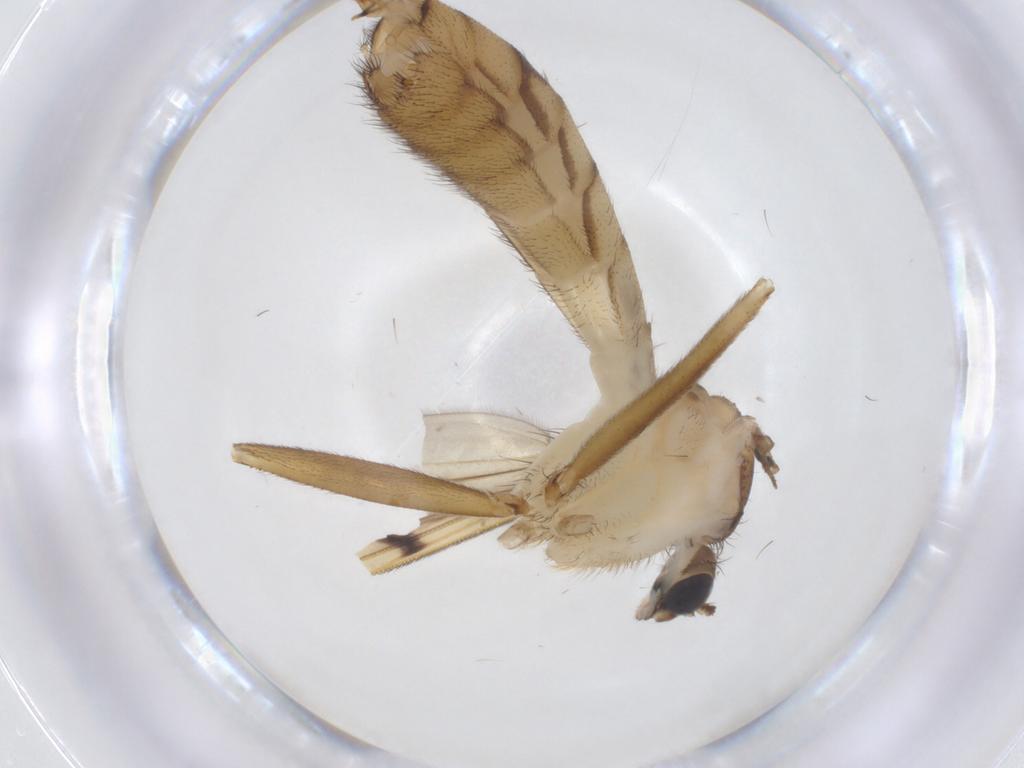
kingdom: Animalia
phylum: Arthropoda
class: Insecta
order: Diptera
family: Mycetophilidae
